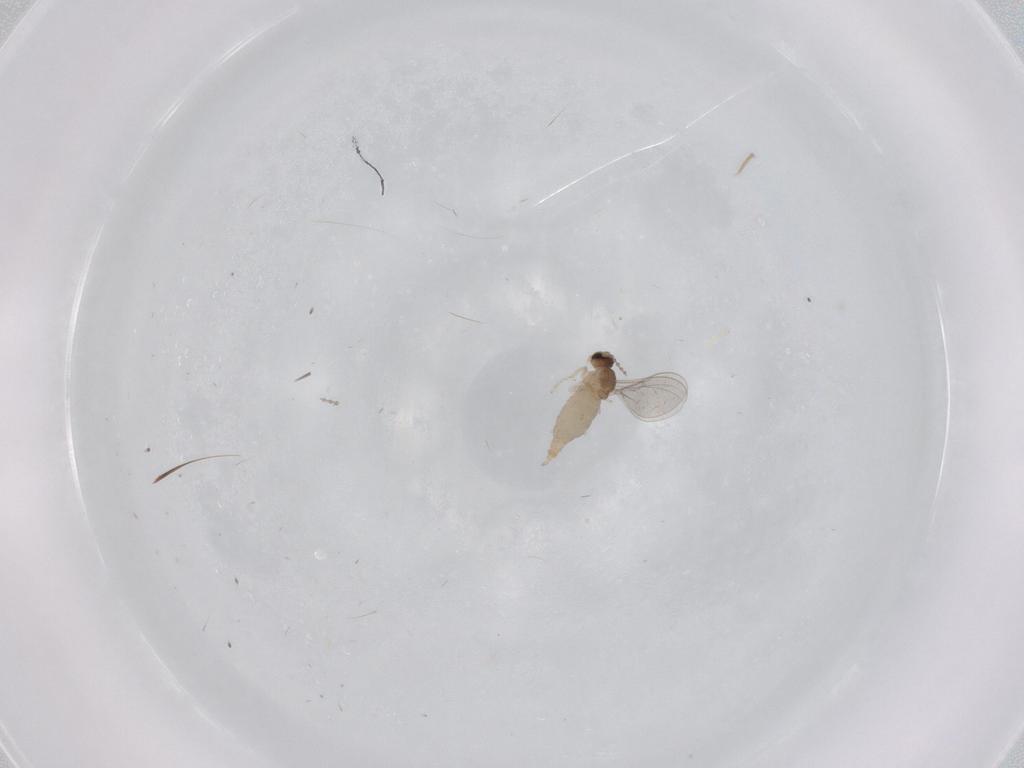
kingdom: Animalia
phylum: Arthropoda
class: Insecta
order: Diptera
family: Cecidomyiidae
